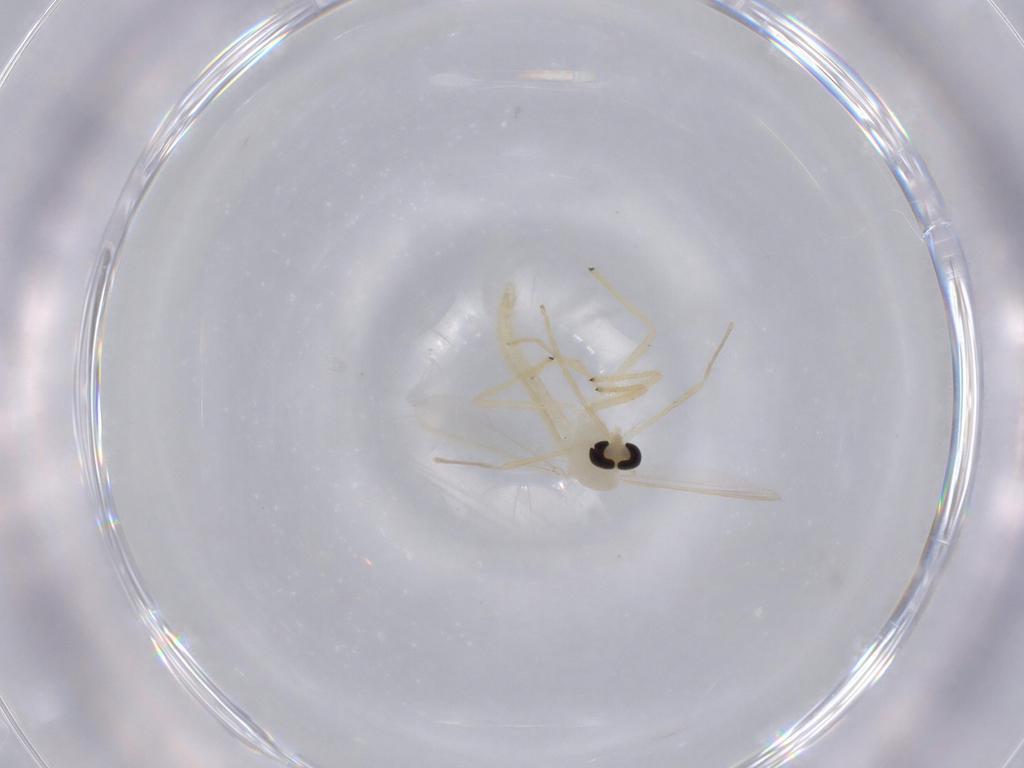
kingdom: Animalia
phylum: Arthropoda
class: Insecta
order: Diptera
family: Chironomidae
